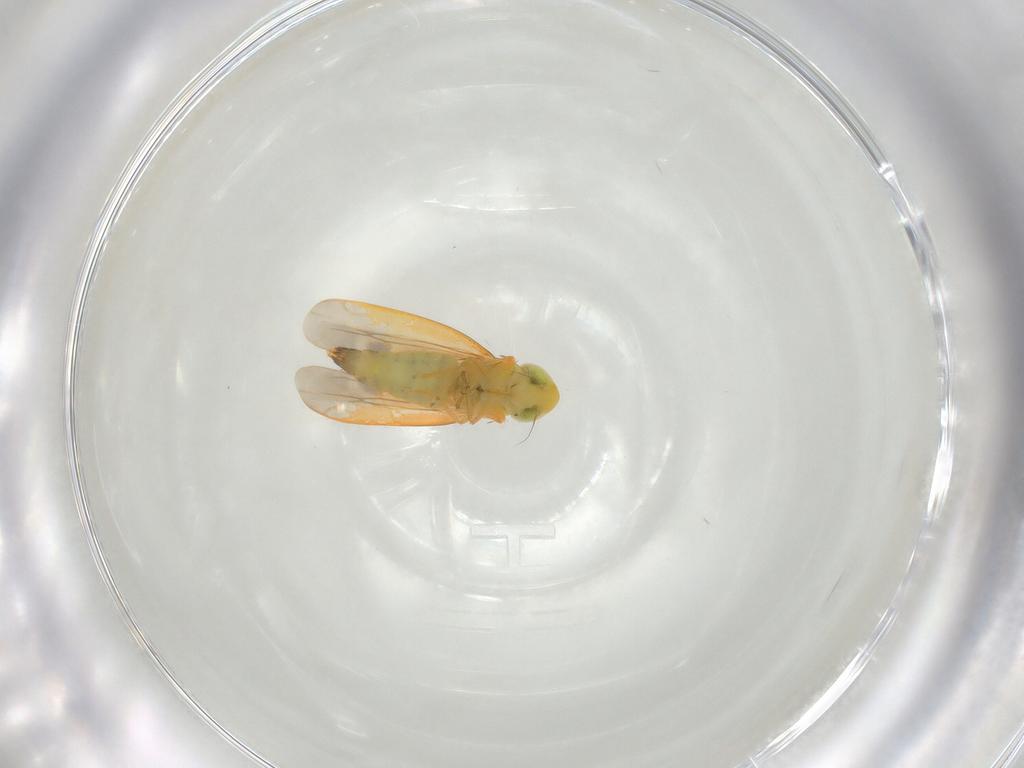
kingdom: Animalia
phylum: Arthropoda
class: Insecta
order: Hemiptera
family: Cicadellidae
